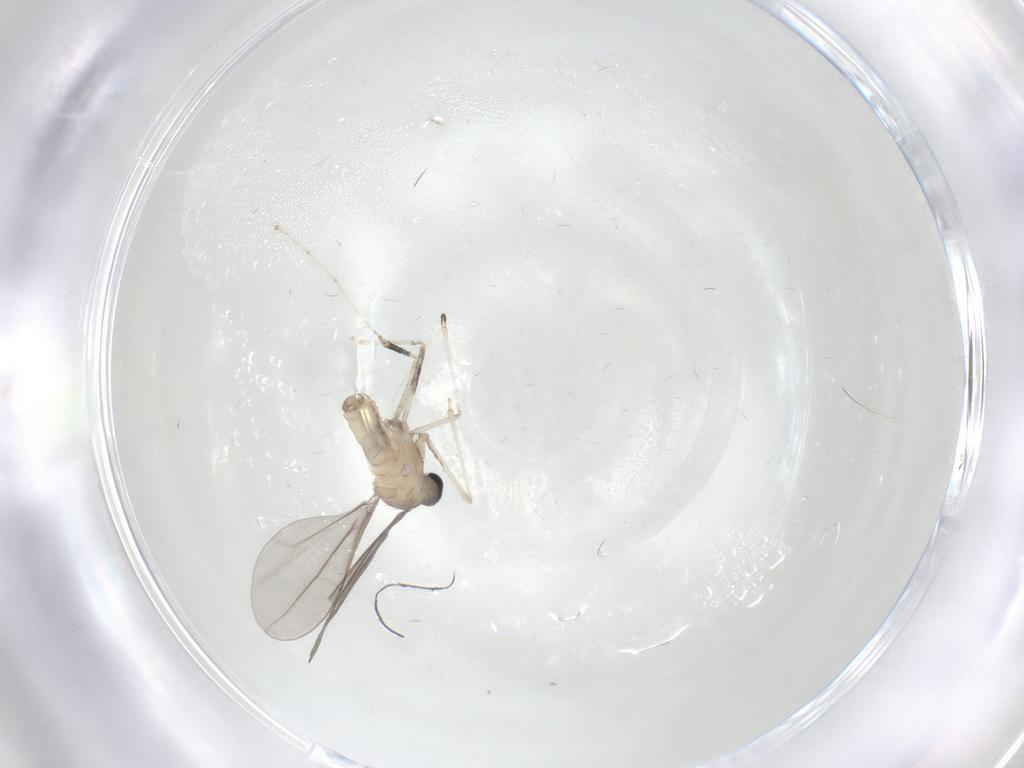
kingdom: Animalia
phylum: Arthropoda
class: Insecta
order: Diptera
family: Cecidomyiidae
